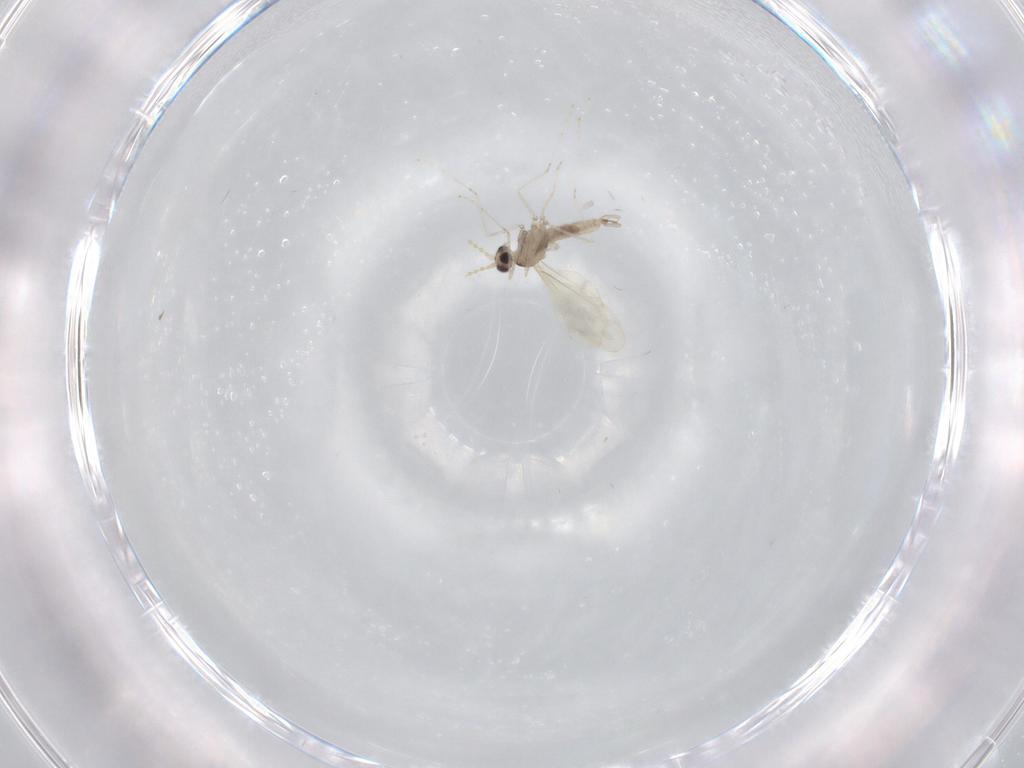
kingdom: Animalia
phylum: Arthropoda
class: Insecta
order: Diptera
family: Cecidomyiidae
